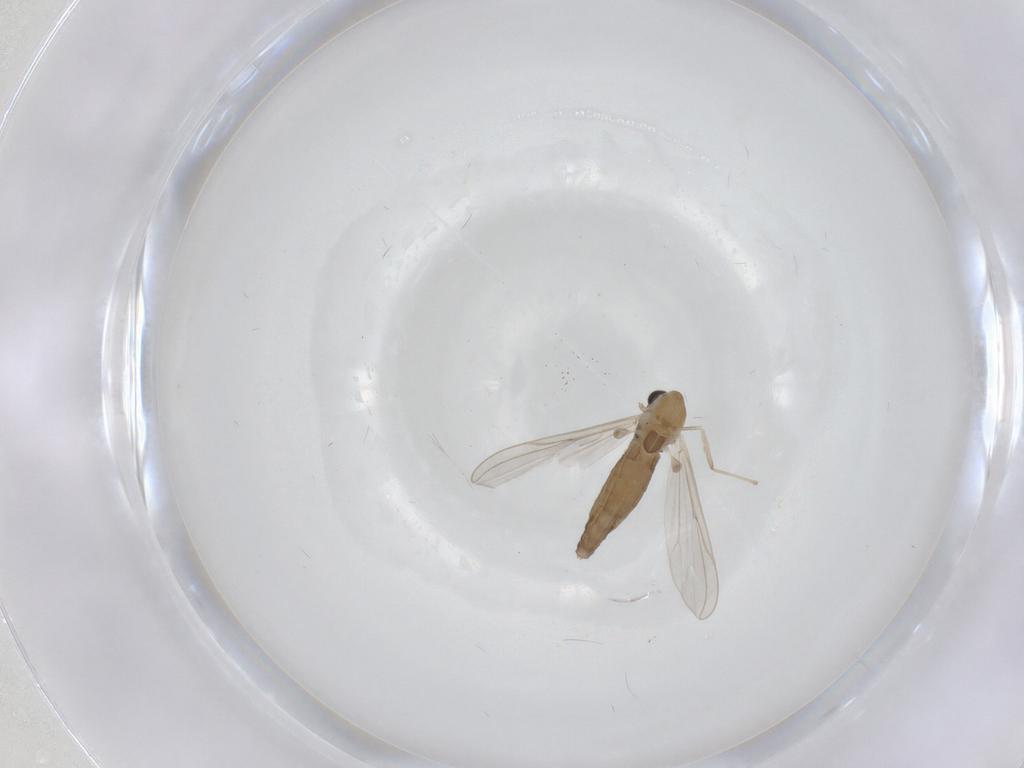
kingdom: Animalia
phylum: Arthropoda
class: Insecta
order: Diptera
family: Chironomidae
